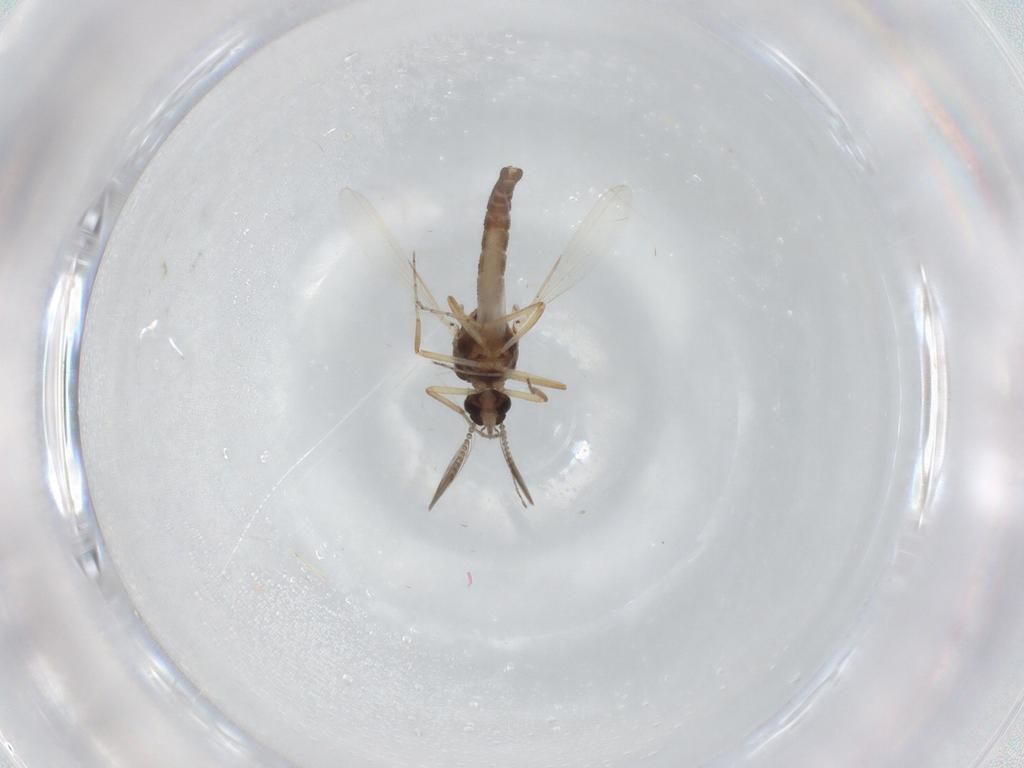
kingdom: Animalia
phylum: Arthropoda
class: Insecta
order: Diptera
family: Ceratopogonidae
